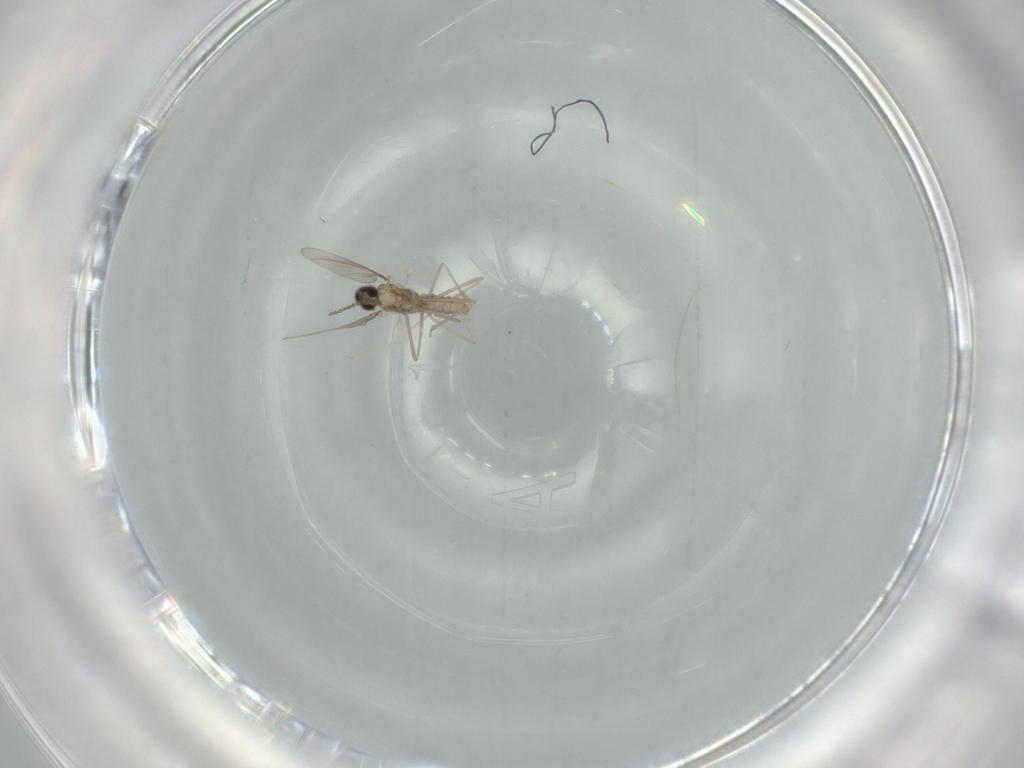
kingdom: Animalia
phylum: Arthropoda
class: Insecta
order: Diptera
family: Cecidomyiidae
